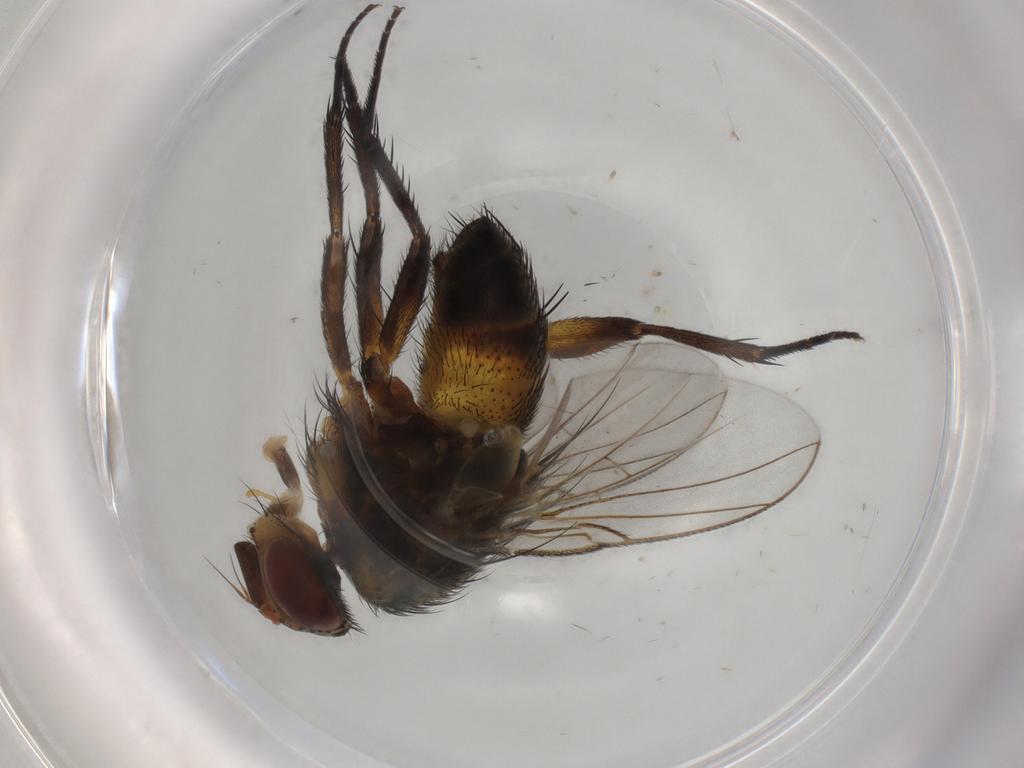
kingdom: Animalia
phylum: Arthropoda
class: Insecta
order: Diptera
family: Tachinidae
